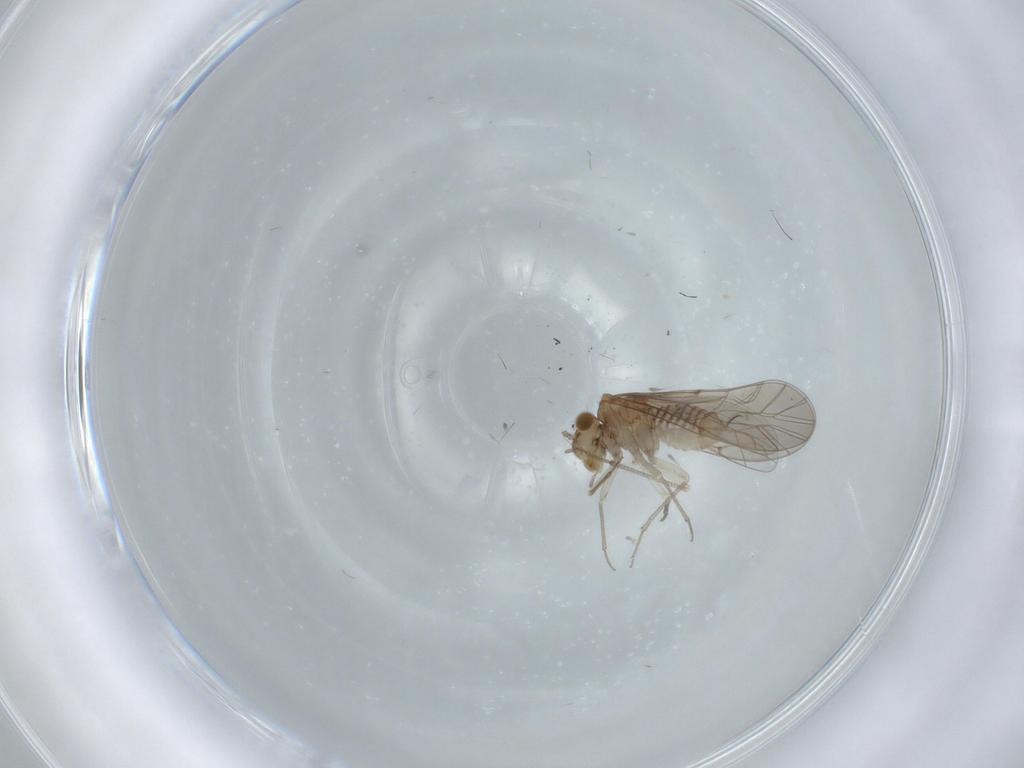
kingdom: Animalia
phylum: Arthropoda
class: Insecta
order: Psocodea
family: Lachesillidae
